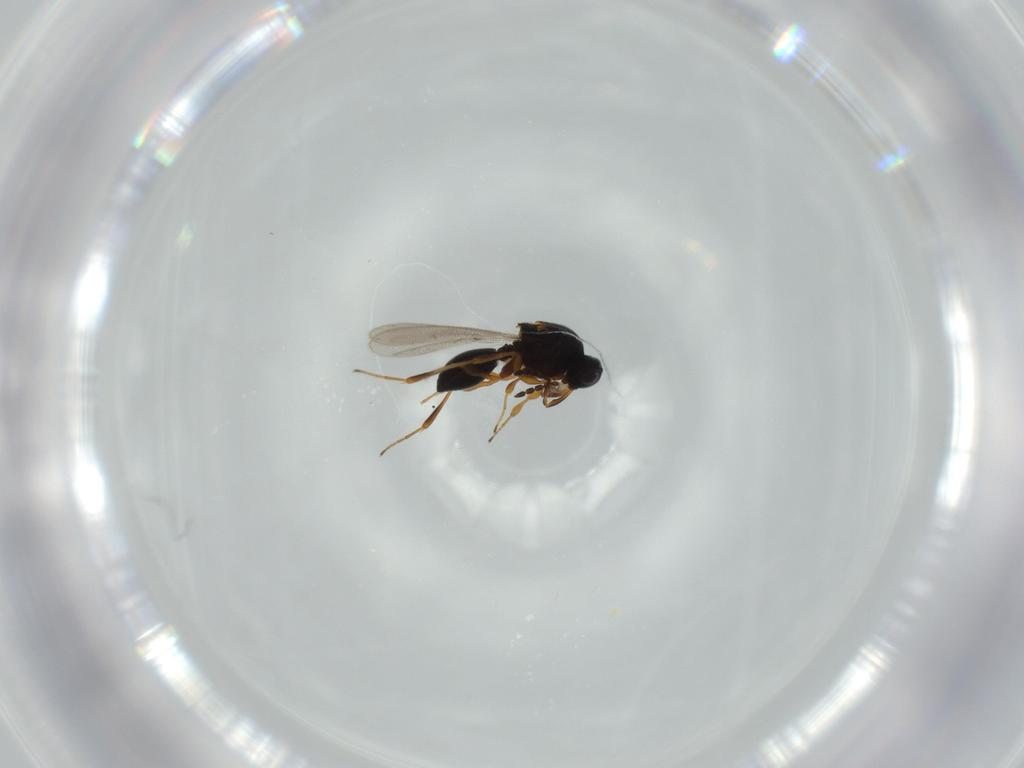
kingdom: Animalia
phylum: Arthropoda
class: Insecta
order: Hymenoptera
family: Platygastridae
